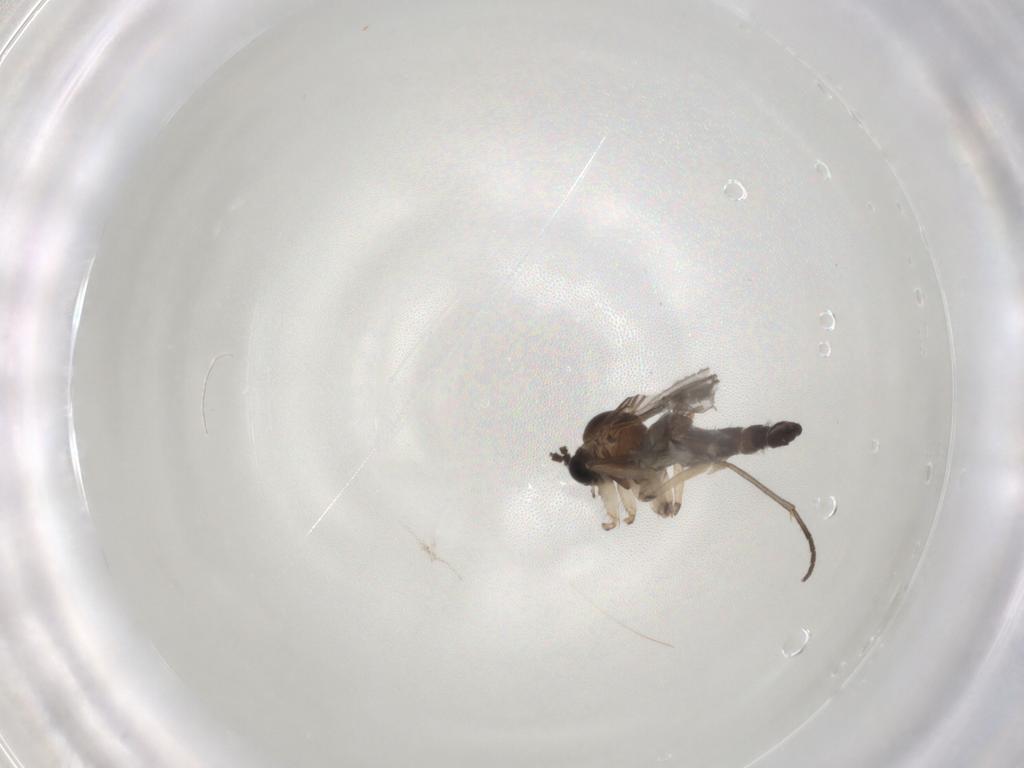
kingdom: Animalia
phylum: Arthropoda
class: Insecta
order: Diptera
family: Sciaridae
